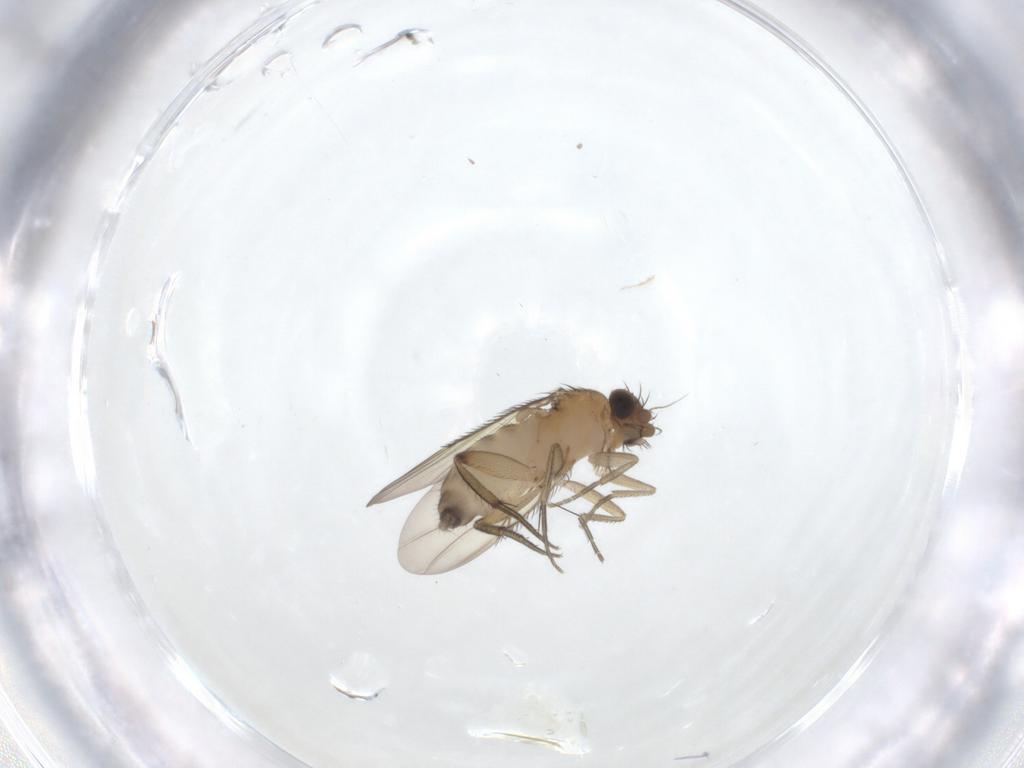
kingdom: Animalia
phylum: Arthropoda
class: Insecta
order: Diptera
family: Phoridae
